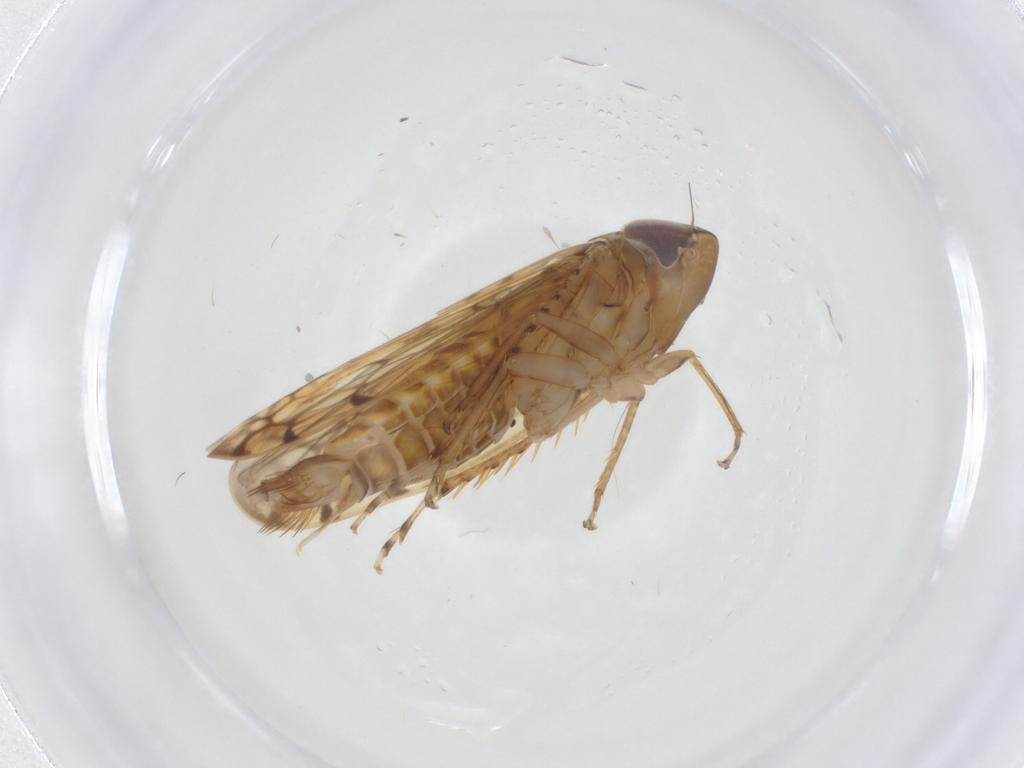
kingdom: Animalia
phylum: Arthropoda
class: Insecta
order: Hemiptera
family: Cicadellidae
